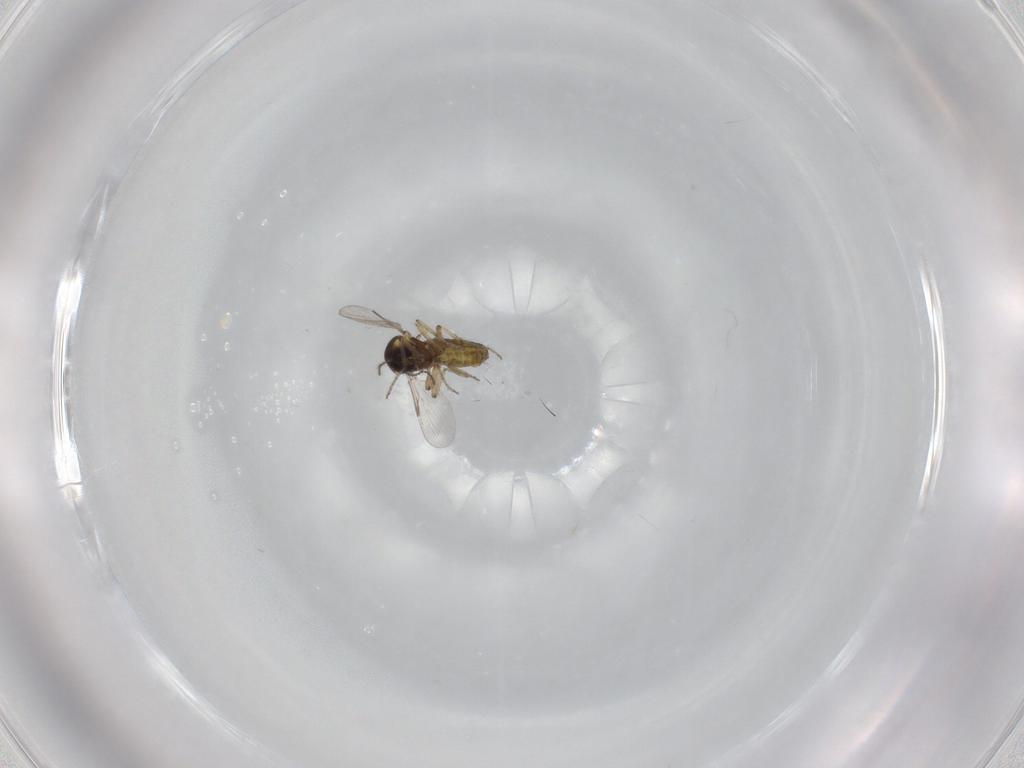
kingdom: Animalia
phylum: Arthropoda
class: Insecta
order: Diptera
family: Ceratopogonidae
